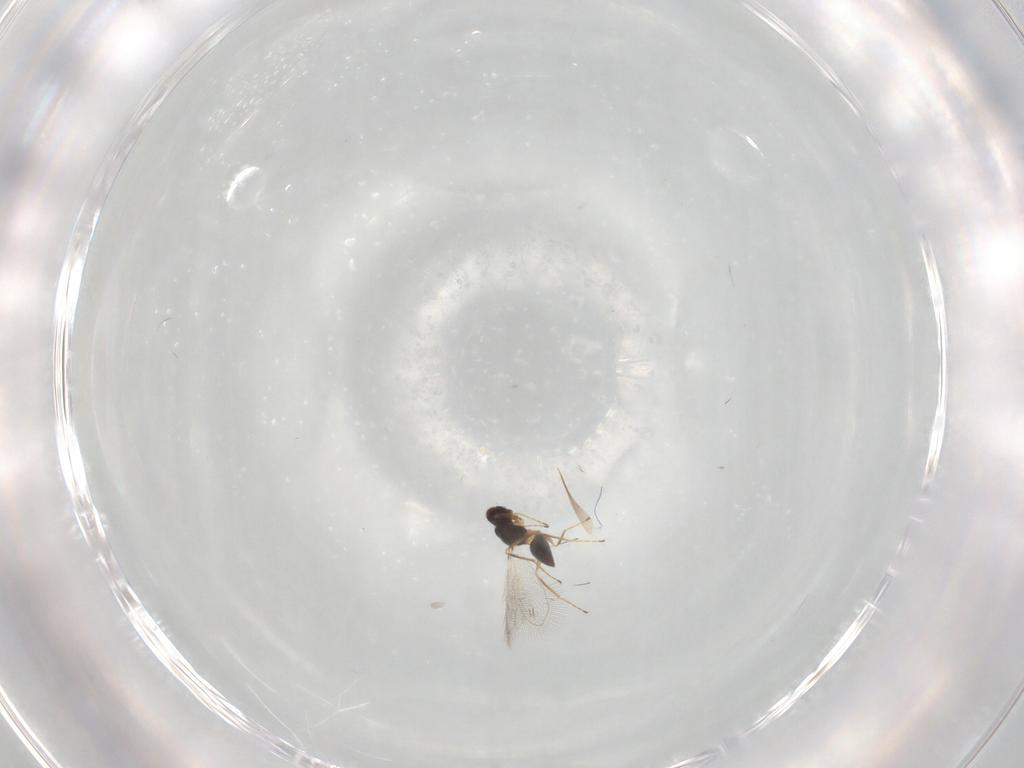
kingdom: Animalia
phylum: Arthropoda
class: Insecta
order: Hymenoptera
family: Mymaridae
